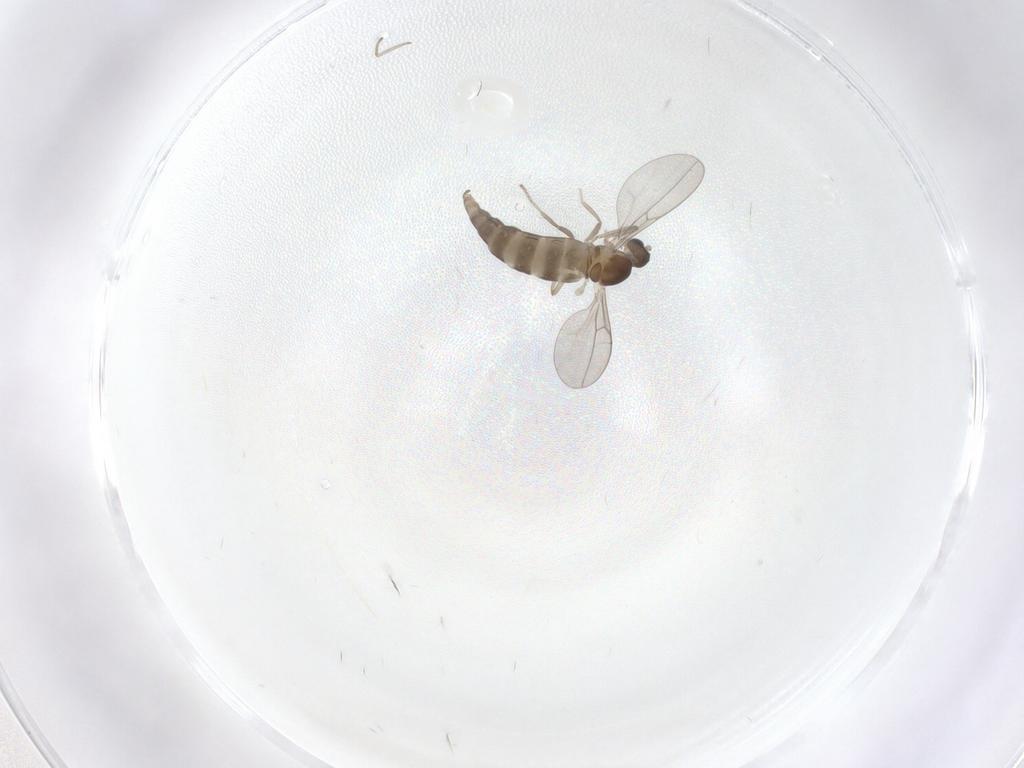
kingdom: Animalia
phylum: Arthropoda
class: Insecta
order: Diptera
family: Cecidomyiidae
